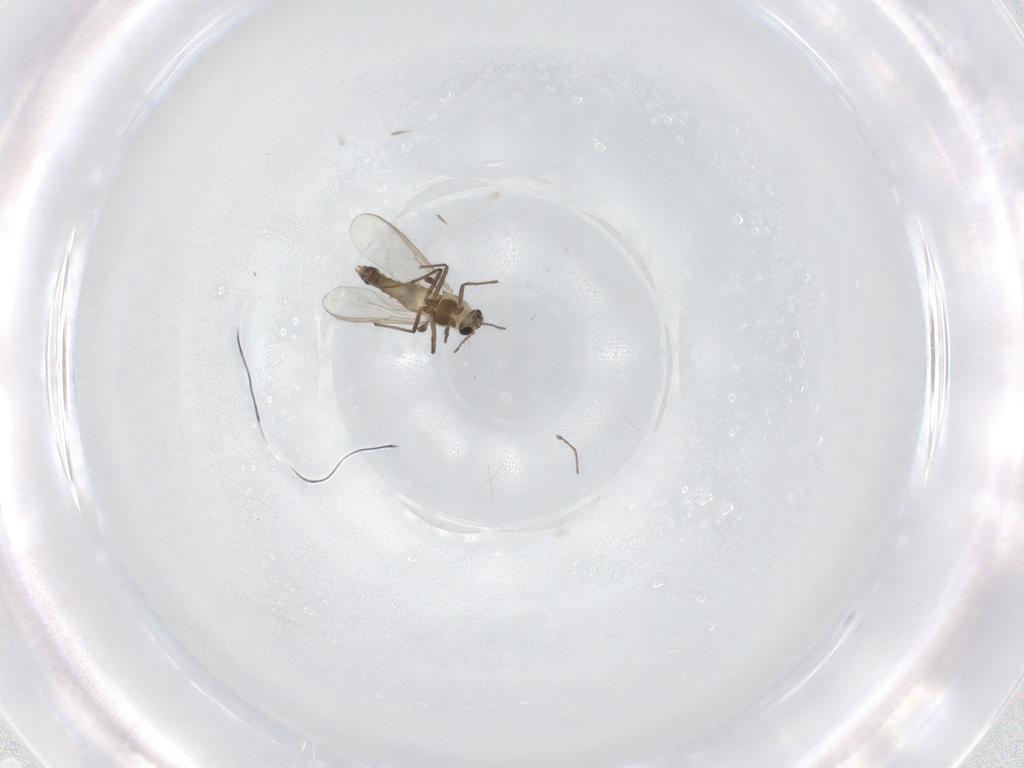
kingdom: Animalia
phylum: Arthropoda
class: Insecta
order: Diptera
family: Chironomidae
